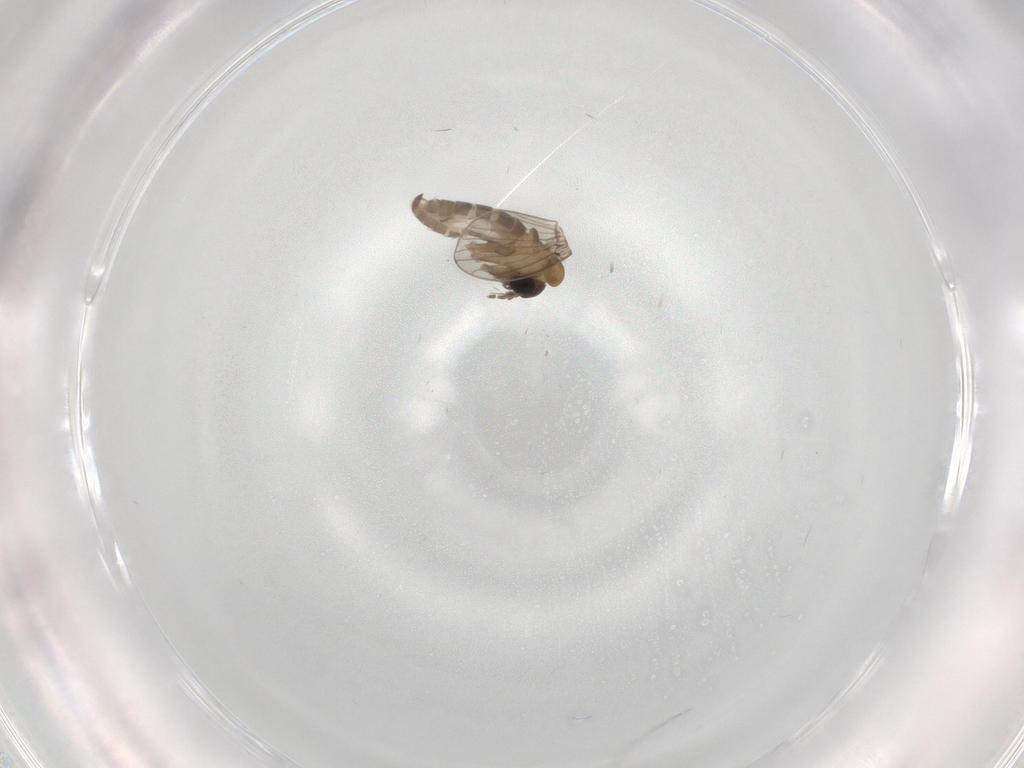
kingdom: Animalia
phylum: Arthropoda
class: Insecta
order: Diptera
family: Psychodidae
